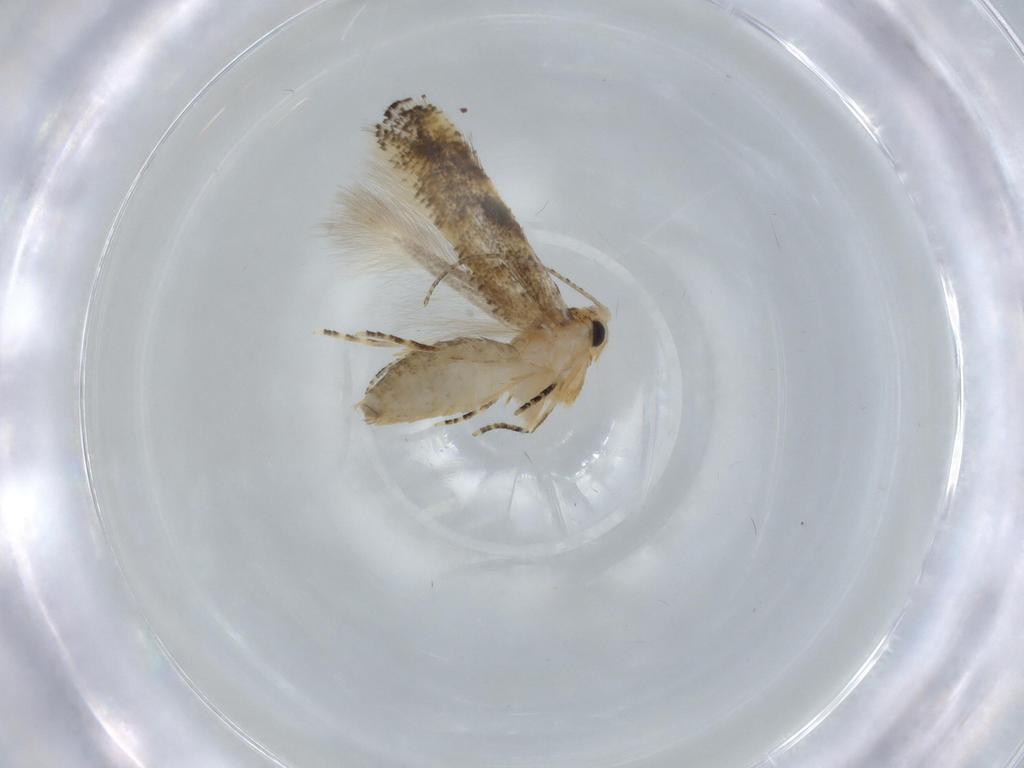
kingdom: Animalia
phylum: Arthropoda
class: Insecta
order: Lepidoptera
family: Bucculatricidae
